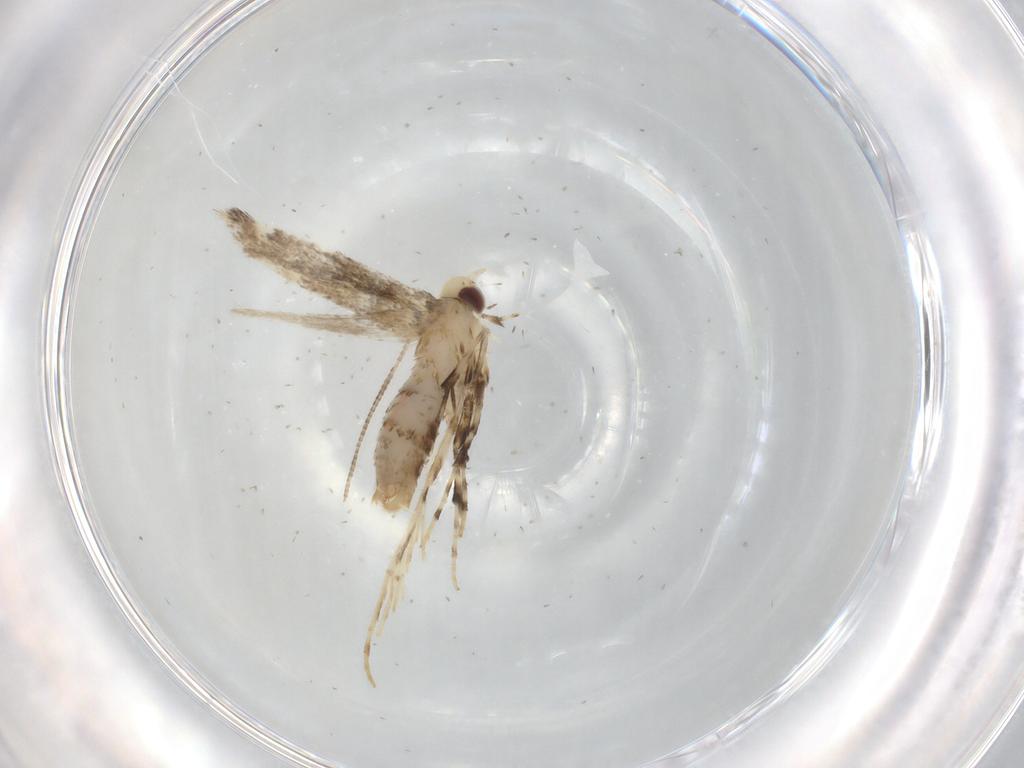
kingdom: Animalia
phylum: Arthropoda
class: Insecta
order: Lepidoptera
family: Gracillariidae
